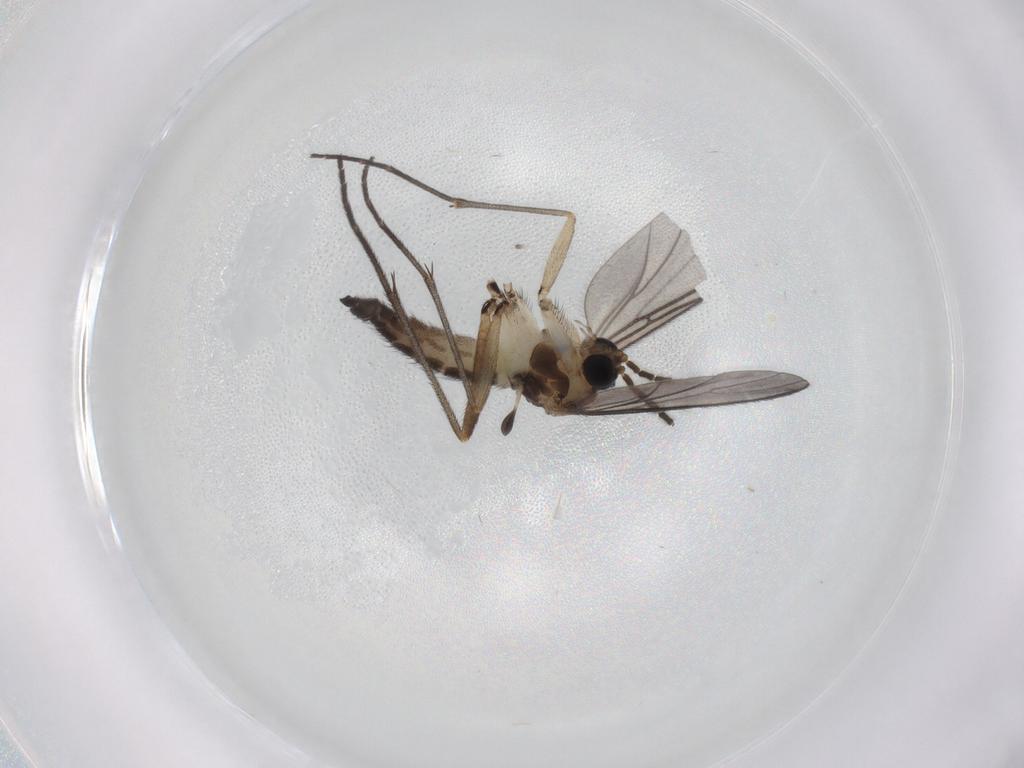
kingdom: Animalia
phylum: Arthropoda
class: Insecta
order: Diptera
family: Sciaridae
